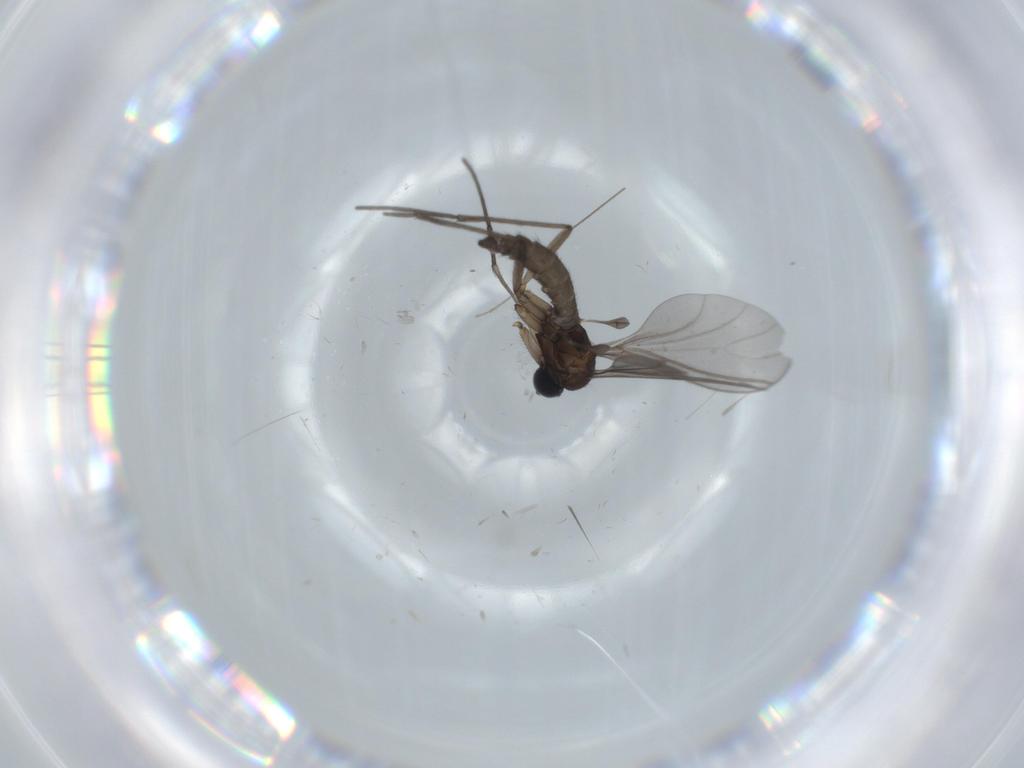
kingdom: Animalia
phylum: Arthropoda
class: Insecta
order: Diptera
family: Sciaridae
